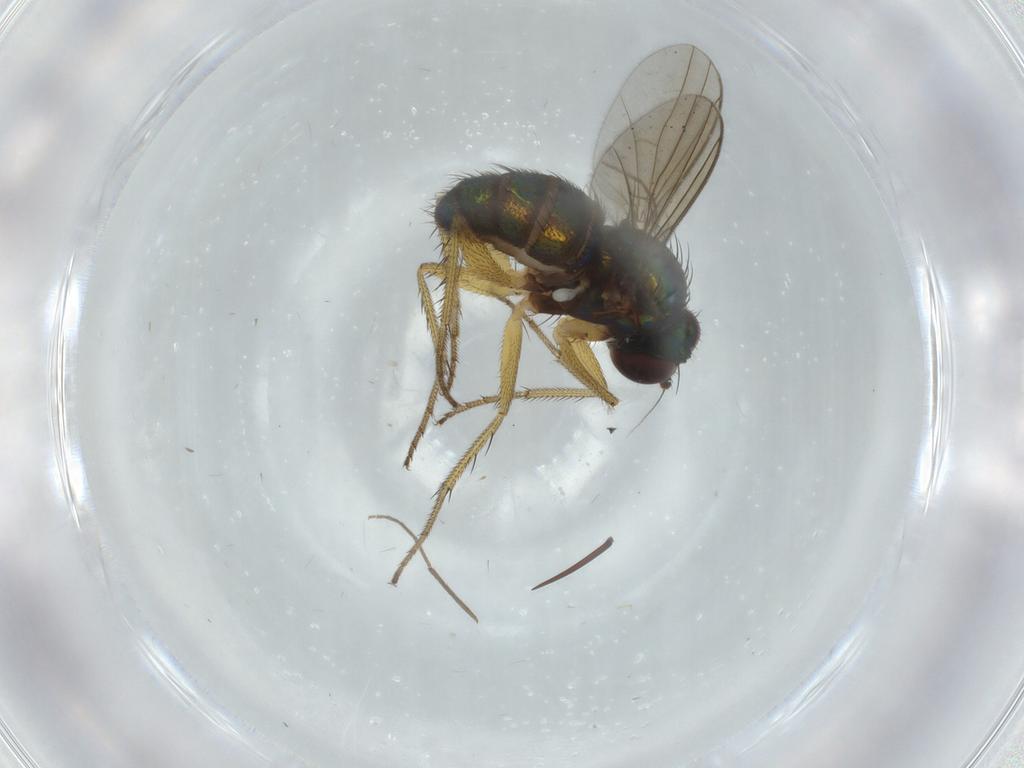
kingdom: Animalia
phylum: Arthropoda
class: Insecta
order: Diptera
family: Dolichopodidae
